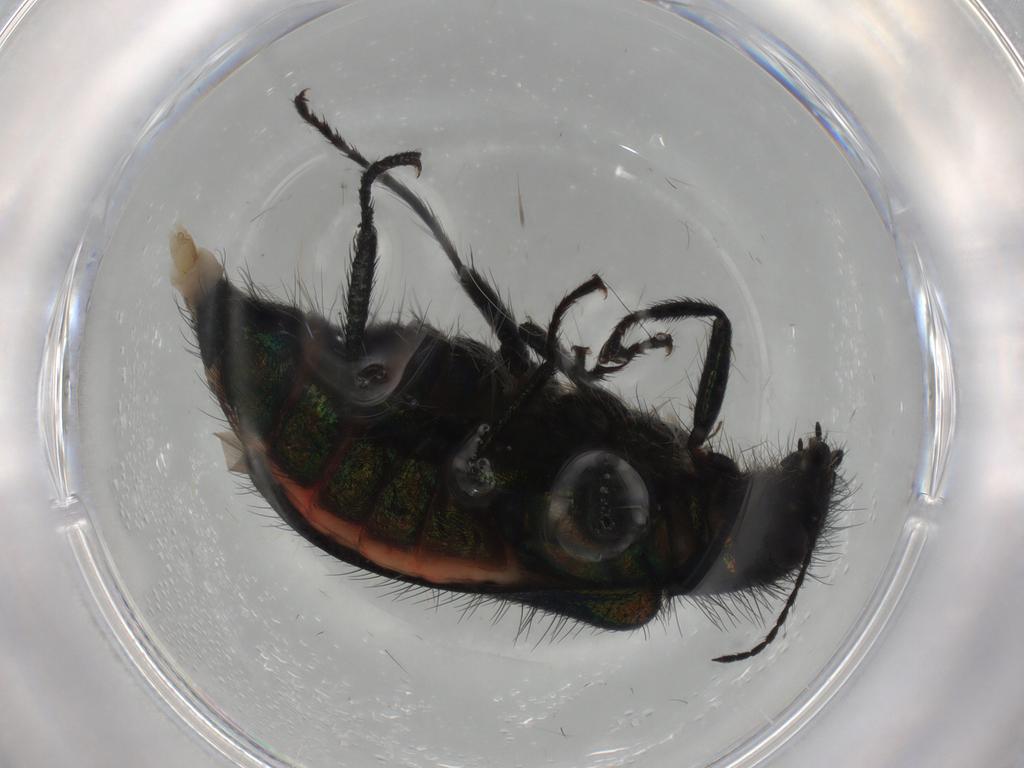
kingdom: Animalia
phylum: Arthropoda
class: Insecta
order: Coleoptera
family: Melyridae
